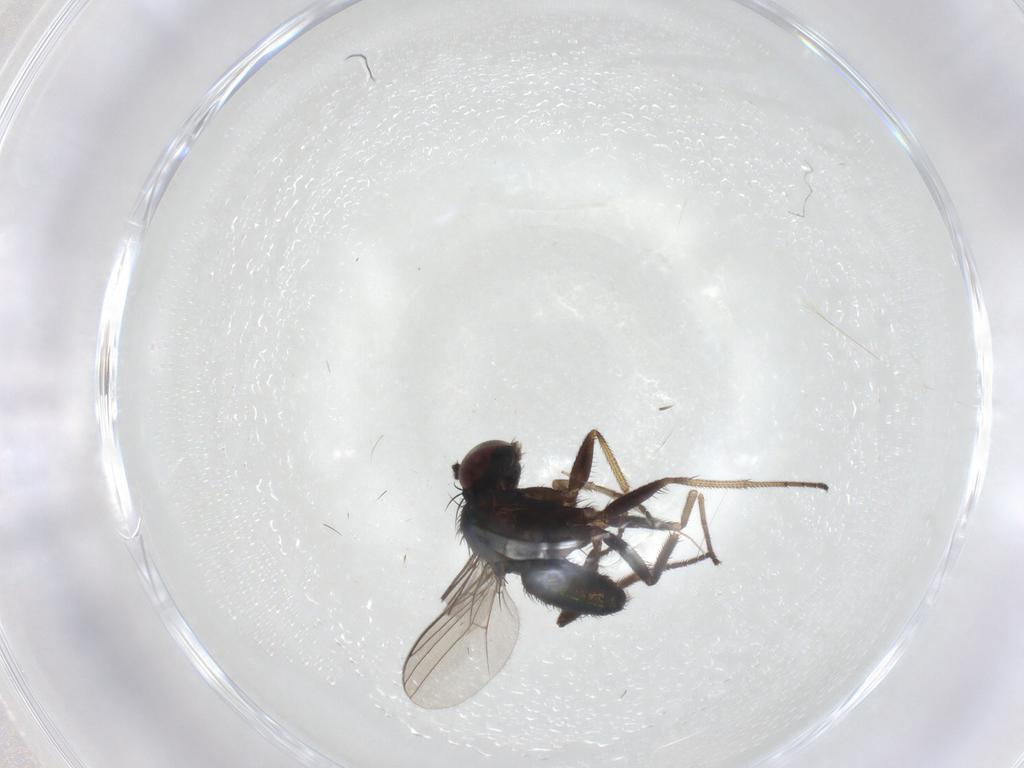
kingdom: Animalia
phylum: Arthropoda
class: Insecta
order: Diptera
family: Dolichopodidae
